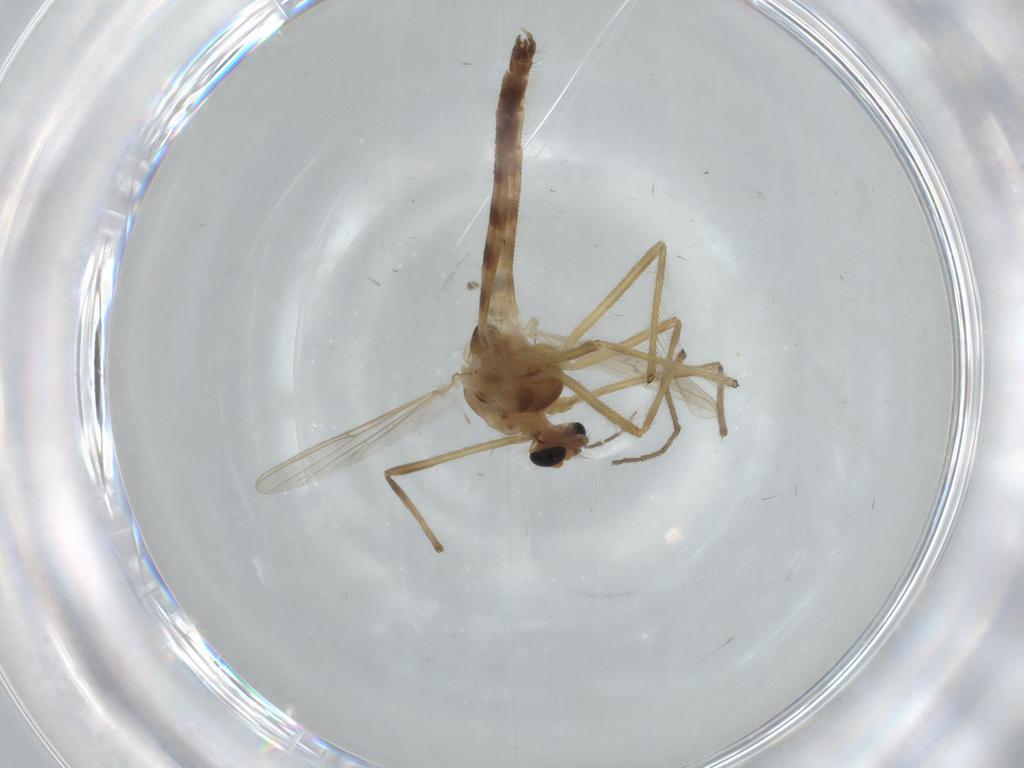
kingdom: Animalia
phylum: Arthropoda
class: Insecta
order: Diptera
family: Chironomidae
